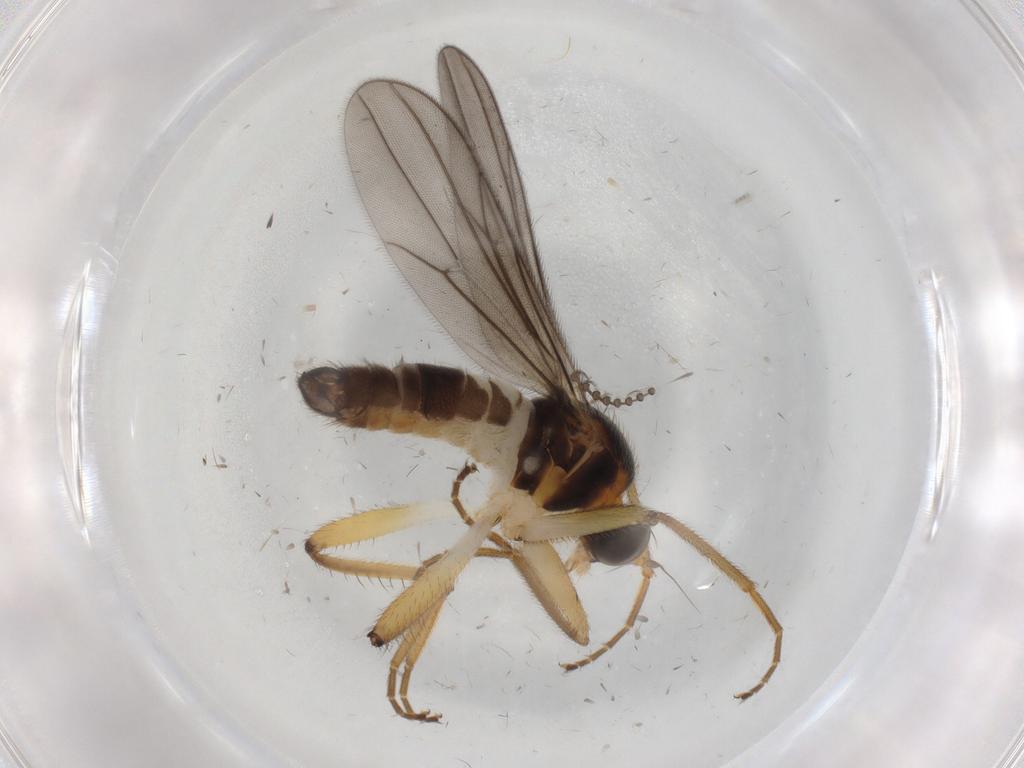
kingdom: Animalia
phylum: Arthropoda
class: Insecta
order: Diptera
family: Hybotidae
